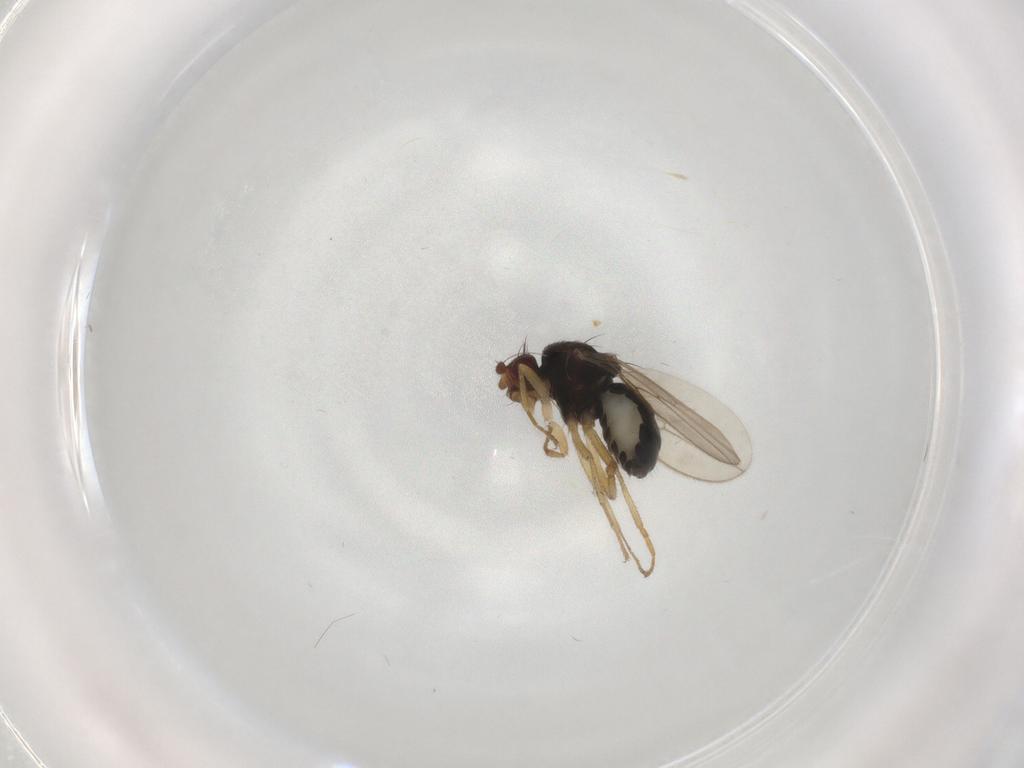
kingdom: Animalia
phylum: Arthropoda
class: Insecta
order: Diptera
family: Sphaeroceridae
